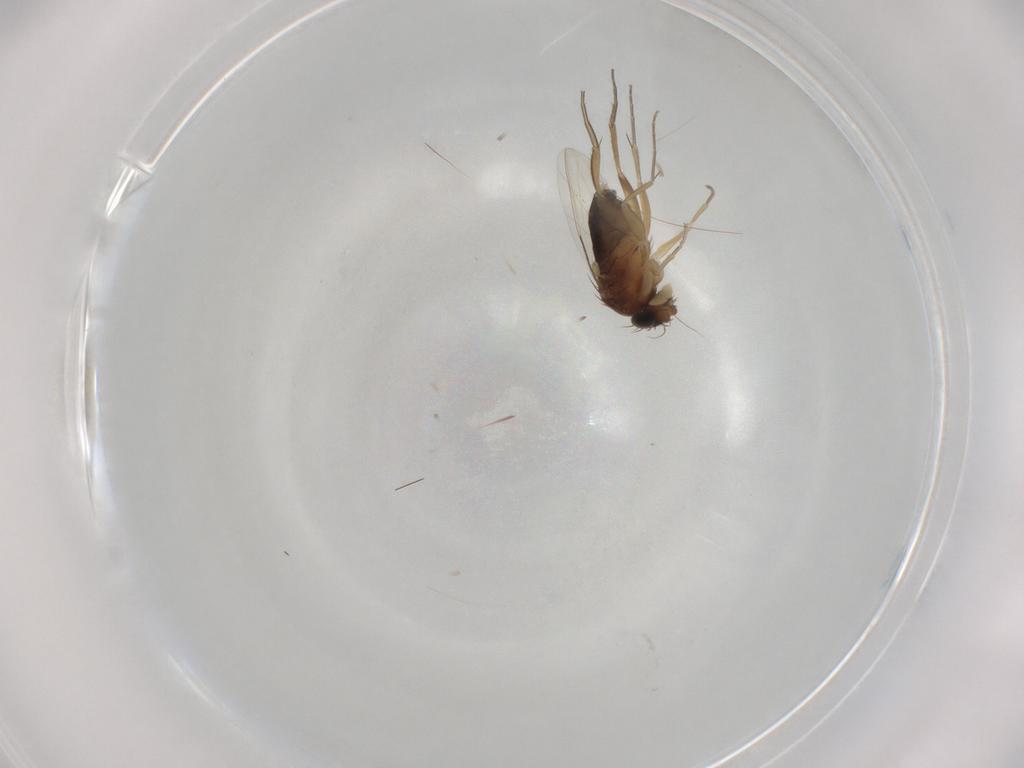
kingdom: Animalia
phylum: Arthropoda
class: Insecta
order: Diptera
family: Phoridae
